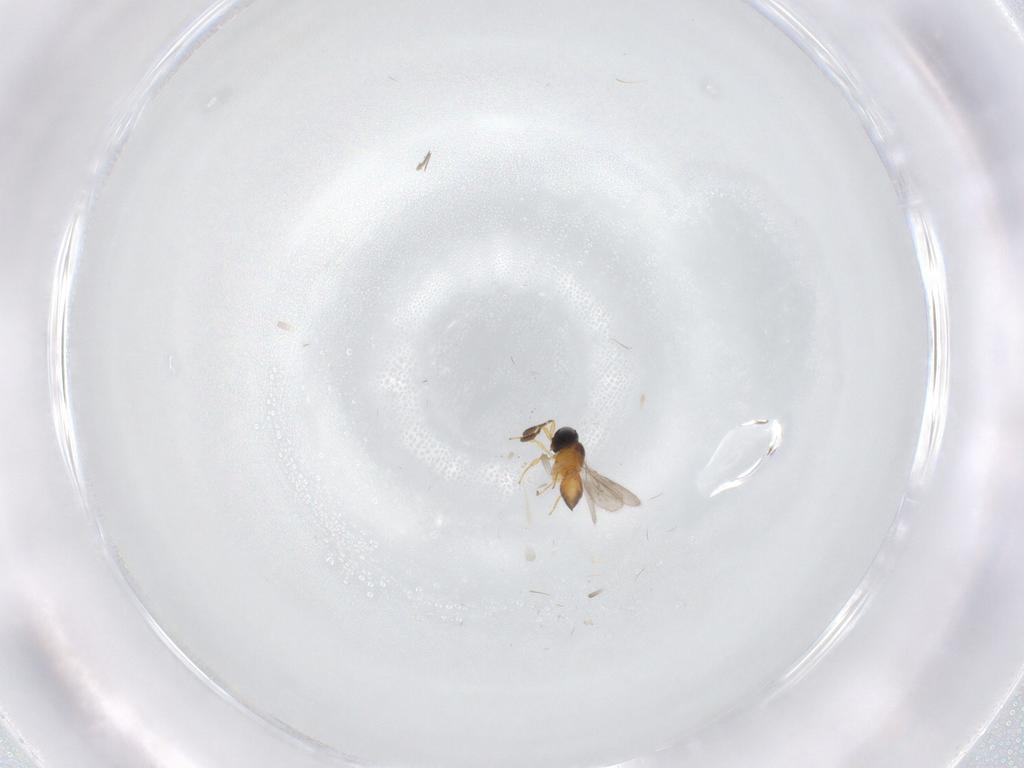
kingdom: Animalia
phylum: Arthropoda
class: Insecta
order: Hymenoptera
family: Scelionidae
